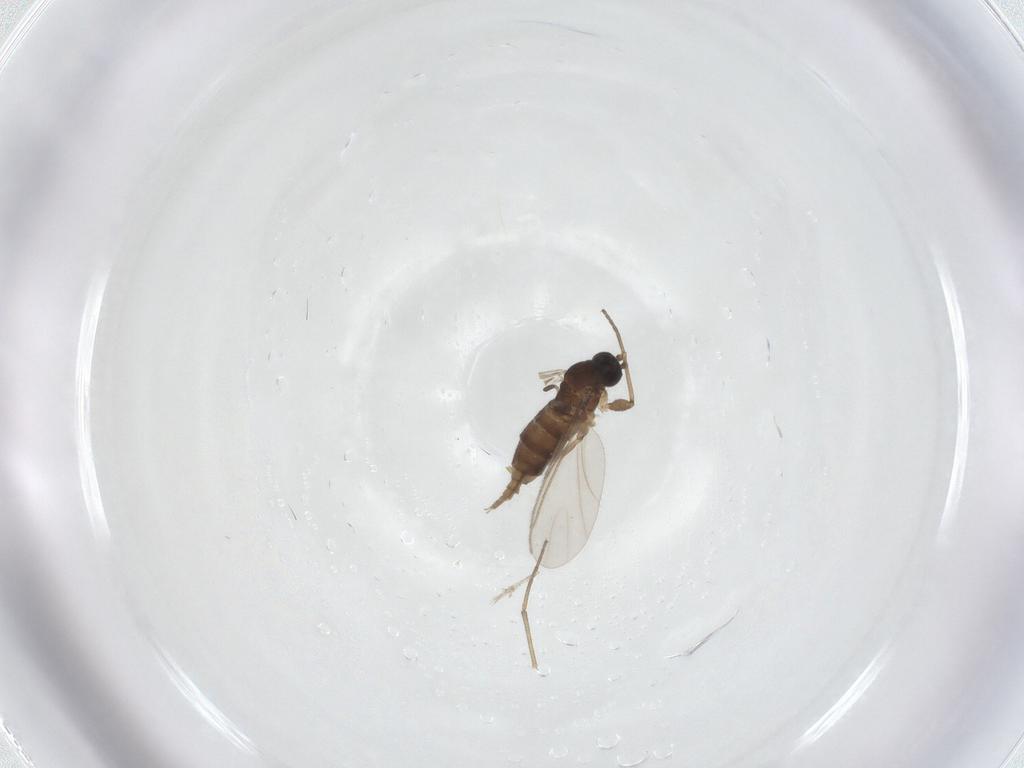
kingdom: Animalia
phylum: Arthropoda
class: Insecta
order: Diptera
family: Sciaridae
